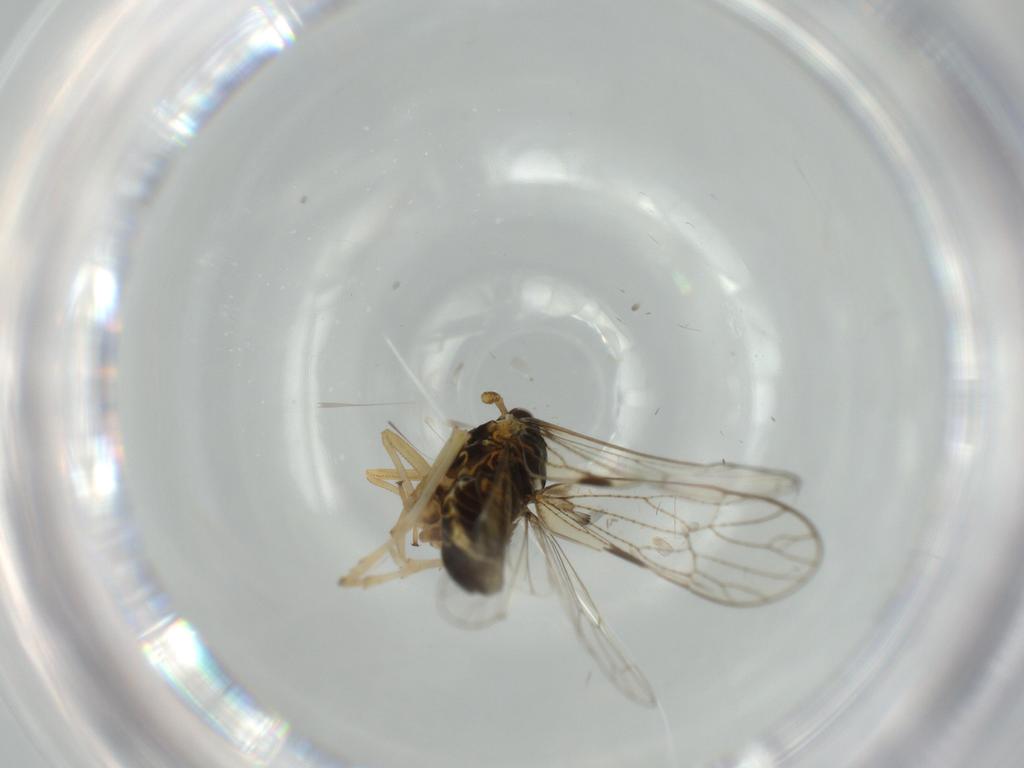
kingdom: Animalia
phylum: Arthropoda
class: Insecta
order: Hemiptera
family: Cicadellidae
